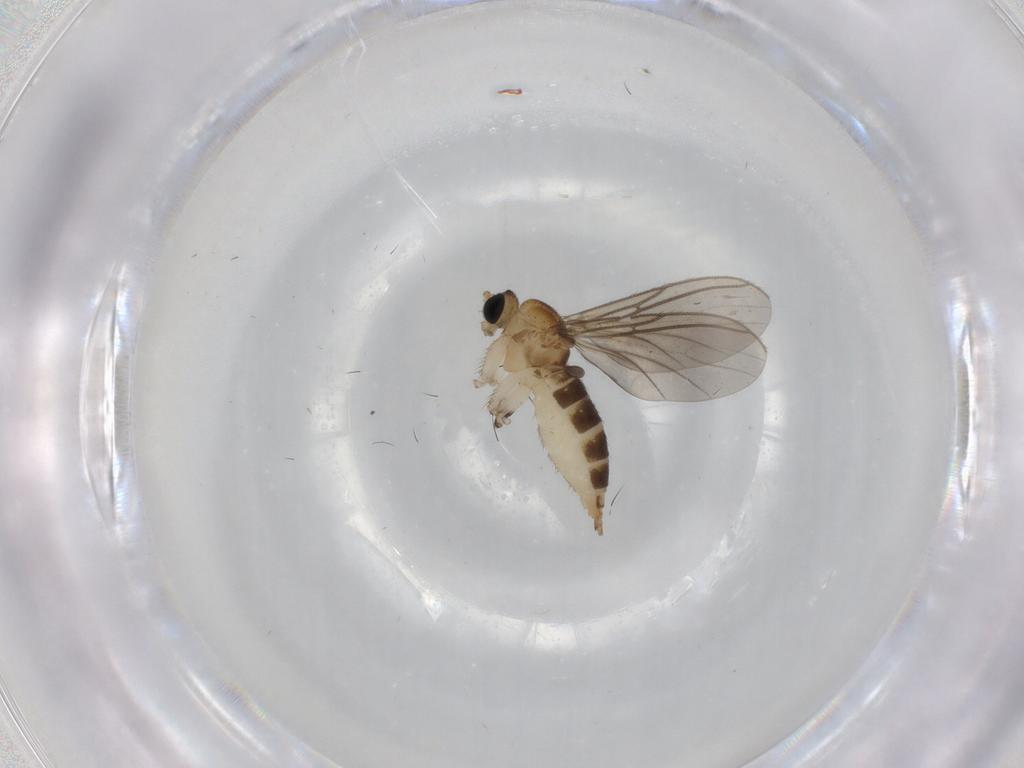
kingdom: Animalia
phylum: Arthropoda
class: Insecta
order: Diptera
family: Sciaridae
